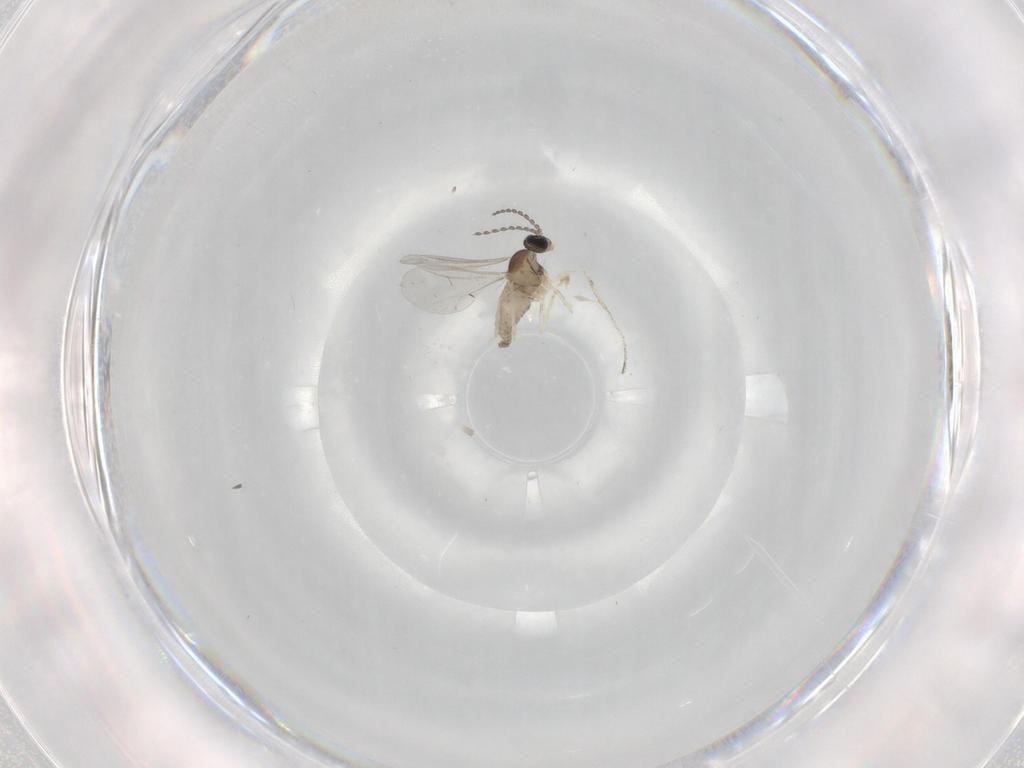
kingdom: Animalia
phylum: Arthropoda
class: Insecta
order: Diptera
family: Cecidomyiidae
